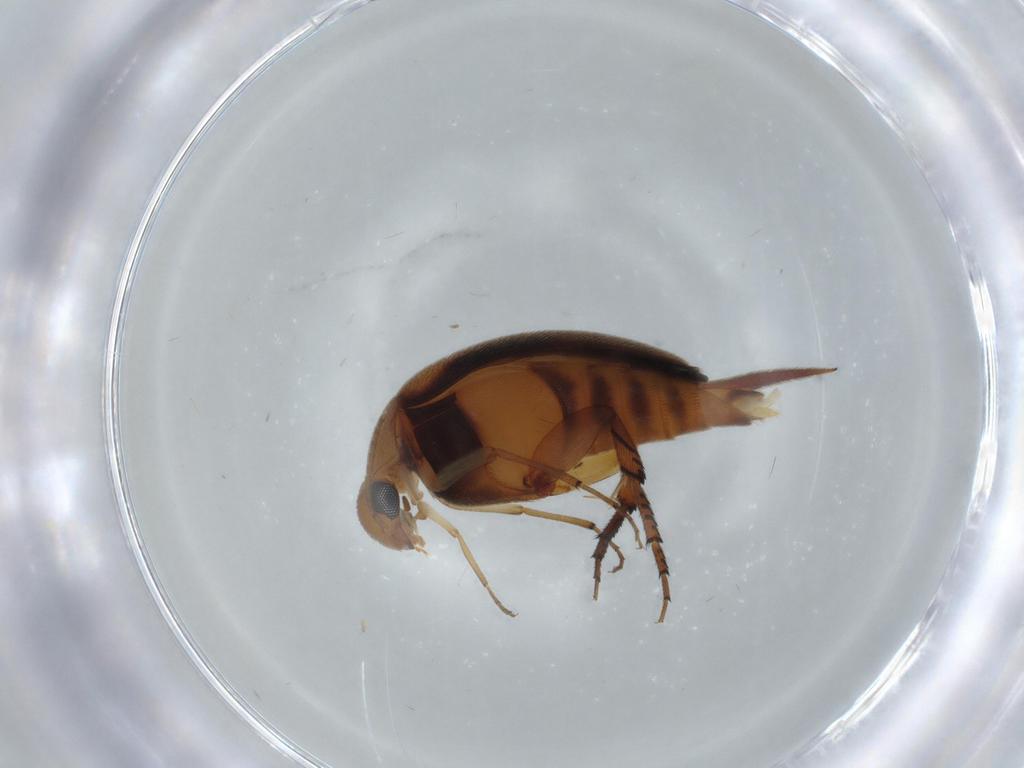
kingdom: Animalia
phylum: Arthropoda
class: Insecta
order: Coleoptera
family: Mordellidae
